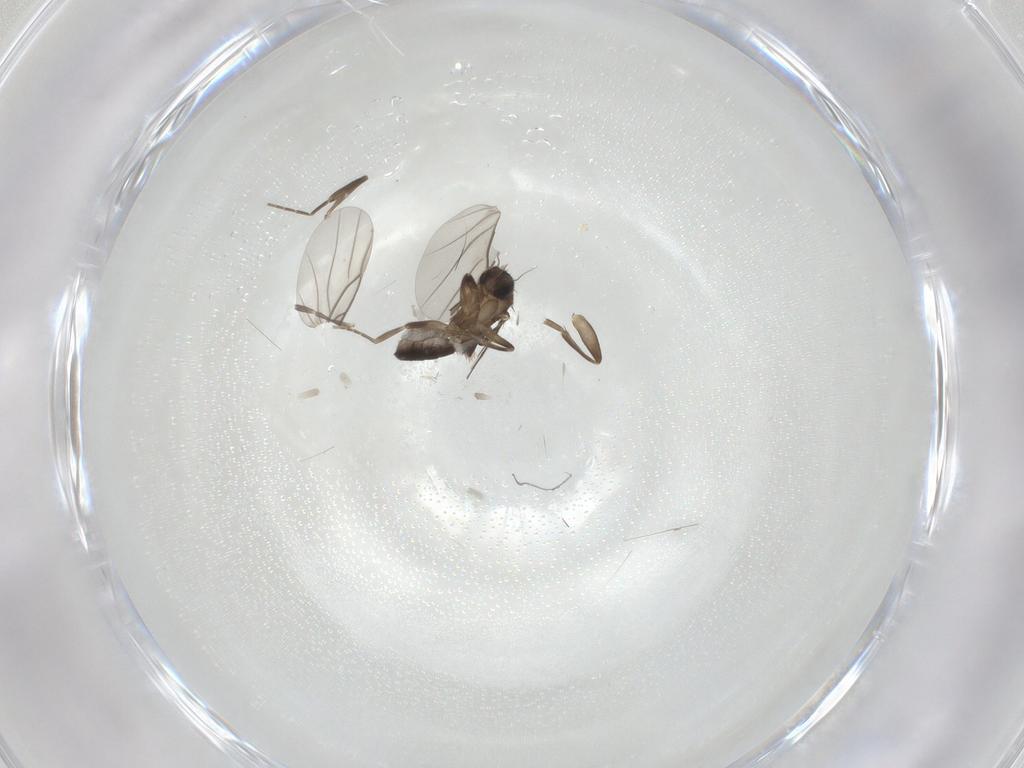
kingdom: Animalia
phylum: Arthropoda
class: Insecta
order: Diptera
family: Phoridae
